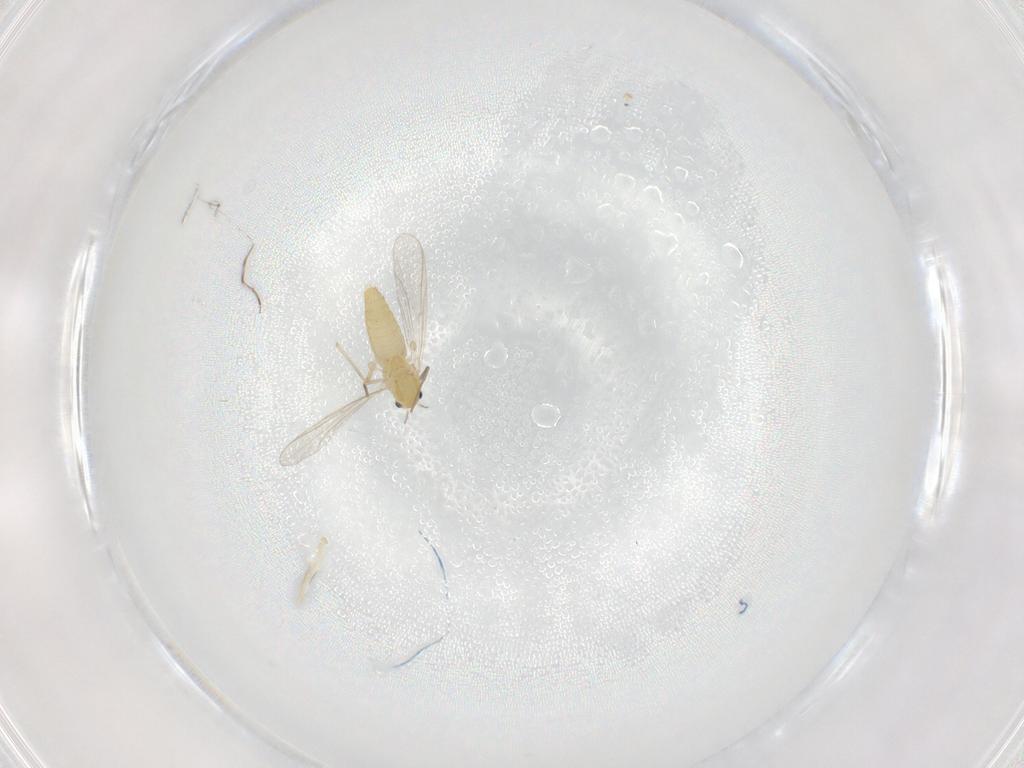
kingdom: Animalia
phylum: Arthropoda
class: Insecta
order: Diptera
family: Chironomidae
